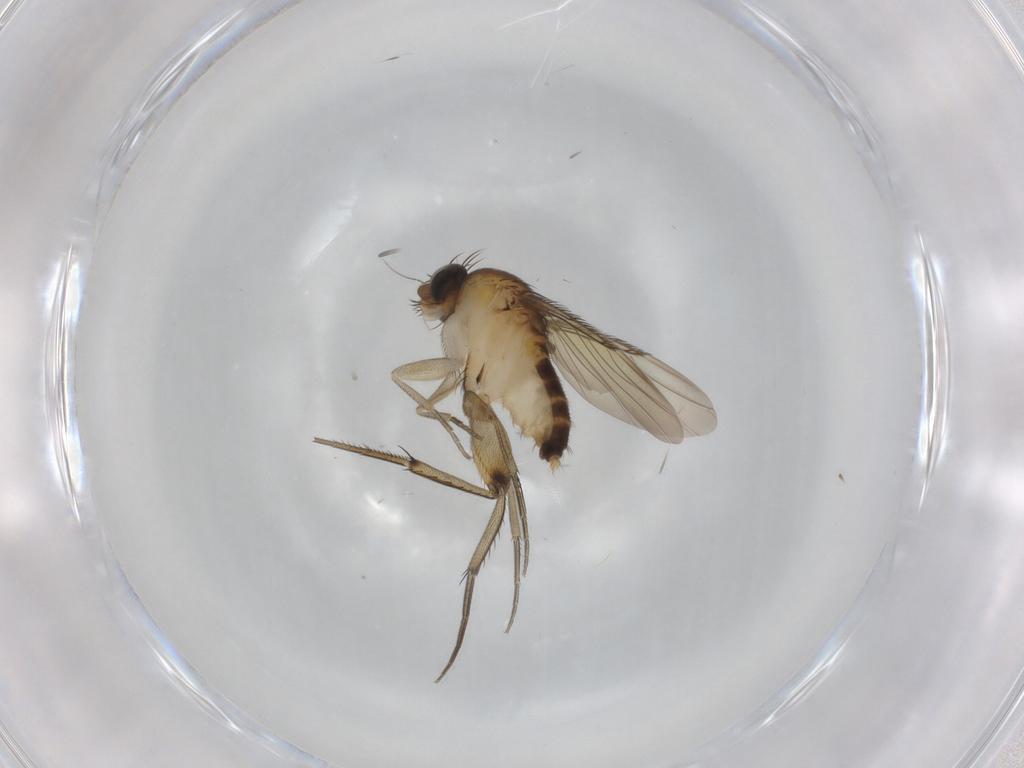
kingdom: Animalia
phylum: Arthropoda
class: Insecta
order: Diptera
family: Phoridae
